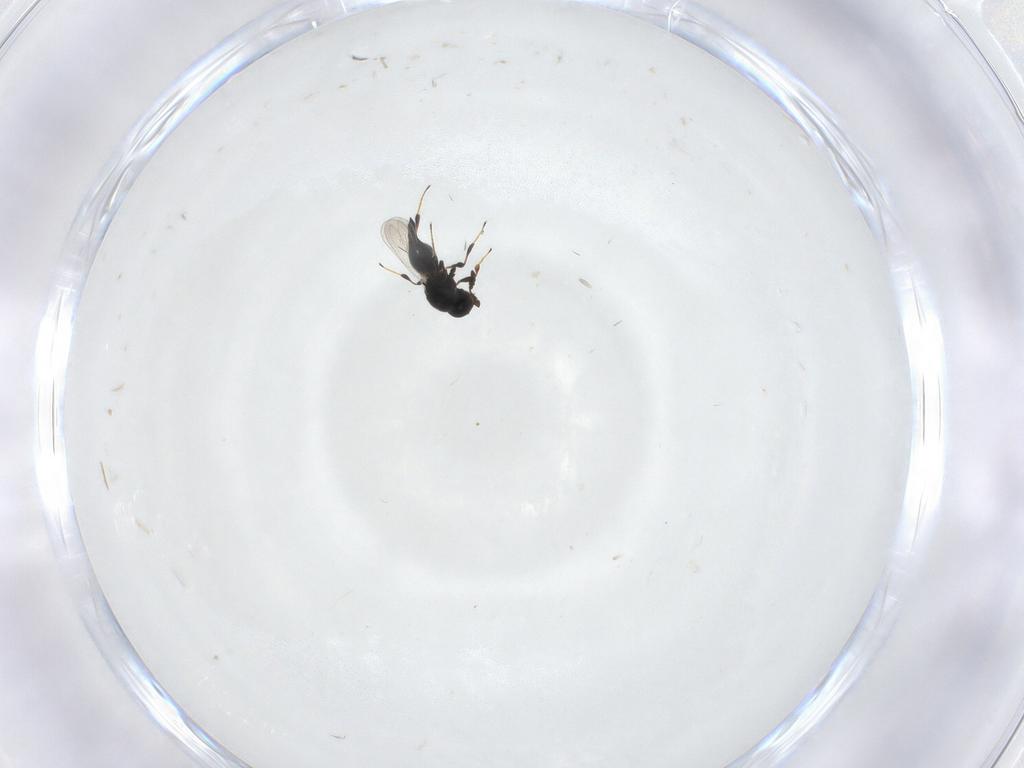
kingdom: Animalia
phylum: Arthropoda
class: Insecta
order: Hymenoptera
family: Platygastridae
